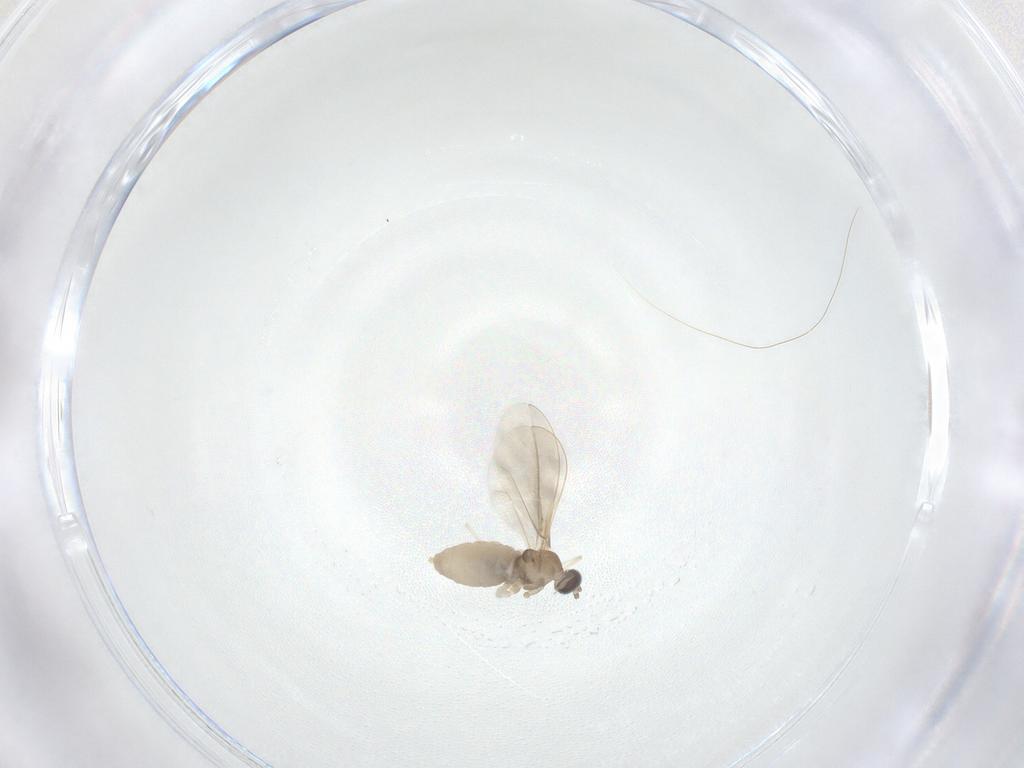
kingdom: Animalia
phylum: Arthropoda
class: Insecta
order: Diptera
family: Cecidomyiidae
